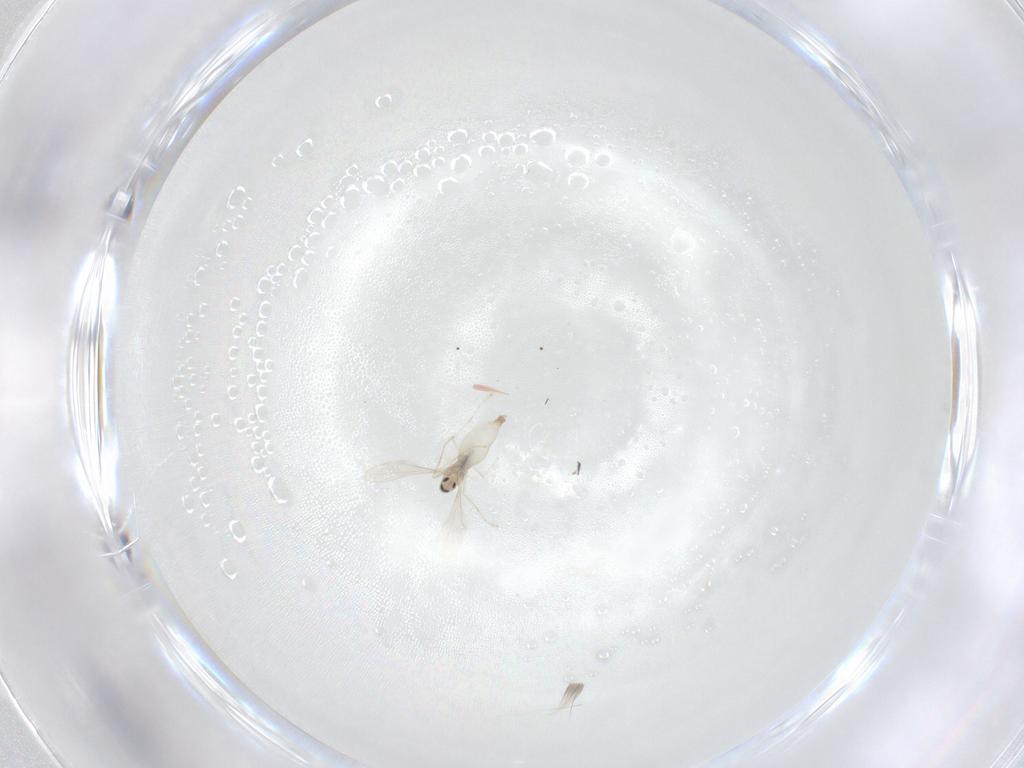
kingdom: Animalia
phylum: Arthropoda
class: Insecta
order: Diptera
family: Cecidomyiidae
